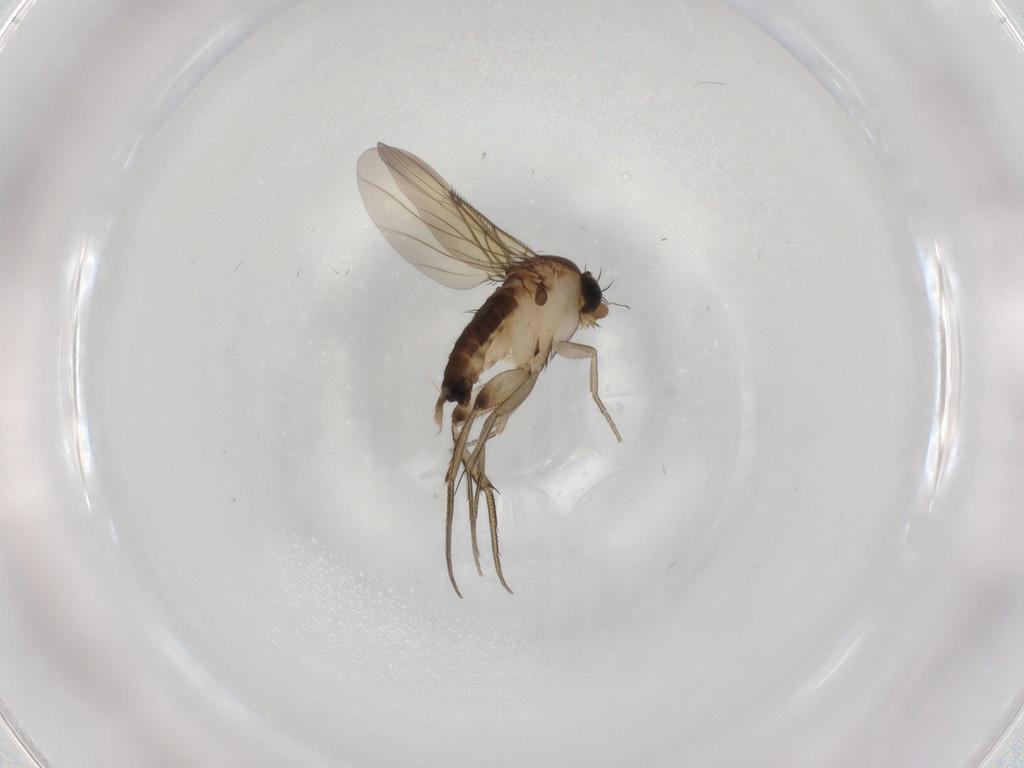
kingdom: Animalia
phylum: Arthropoda
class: Insecta
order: Diptera
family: Phoridae
